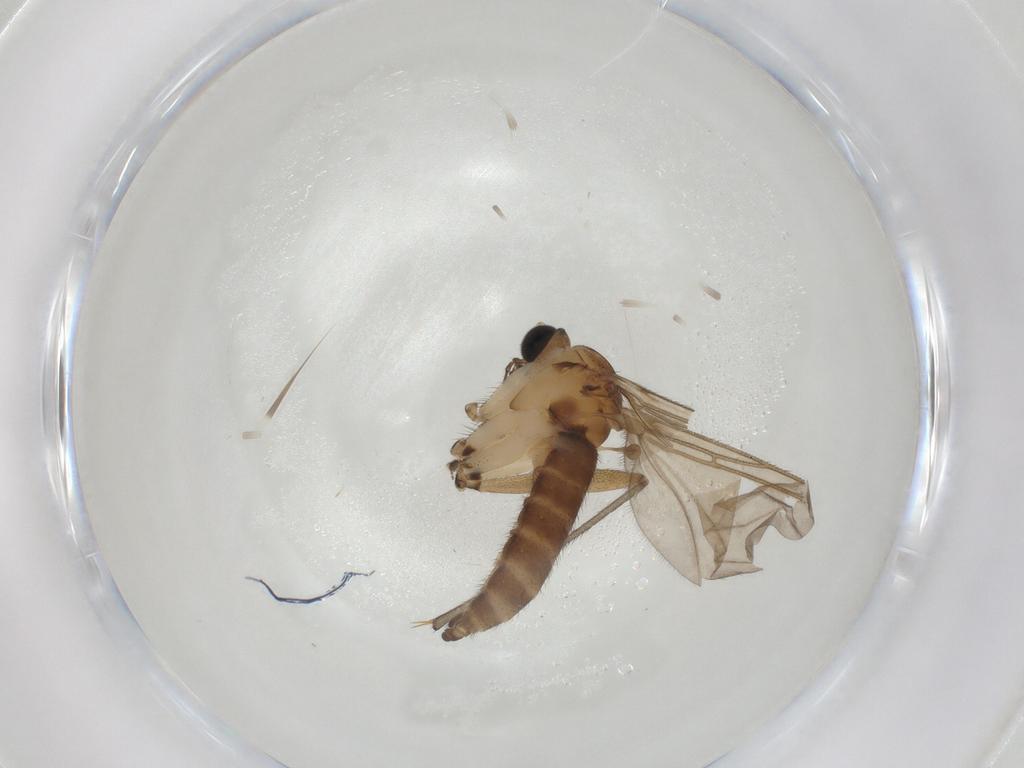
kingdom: Animalia
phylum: Arthropoda
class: Insecta
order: Diptera
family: Sciaridae
